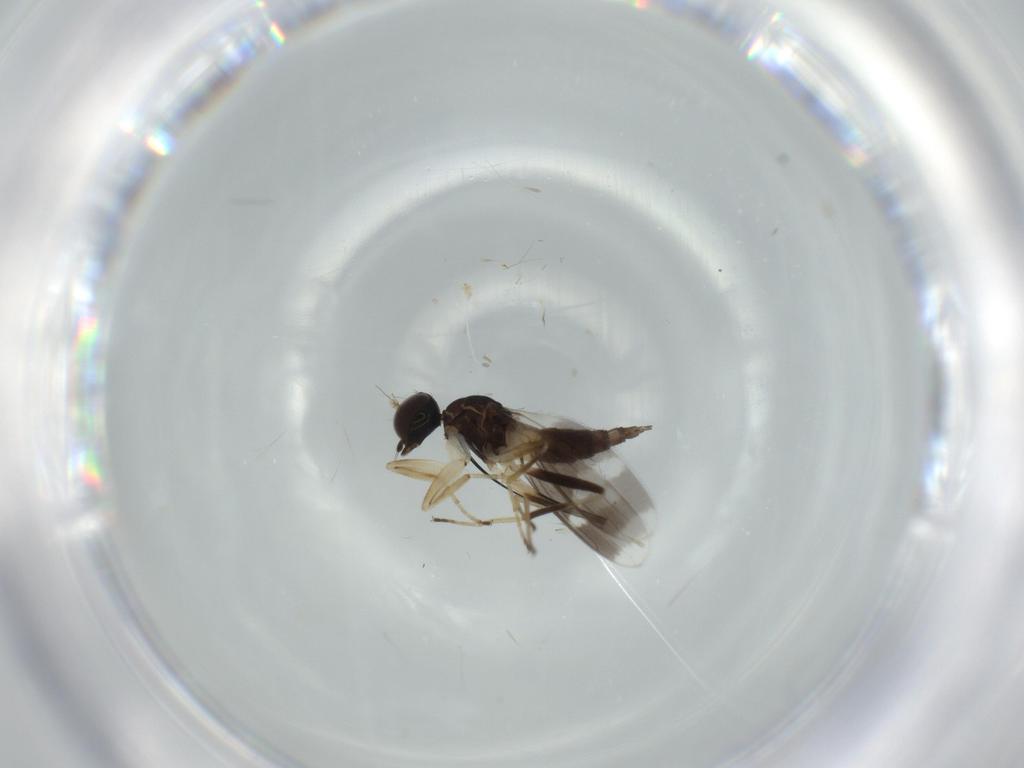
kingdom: Animalia
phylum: Arthropoda
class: Insecta
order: Diptera
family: Hybotidae
